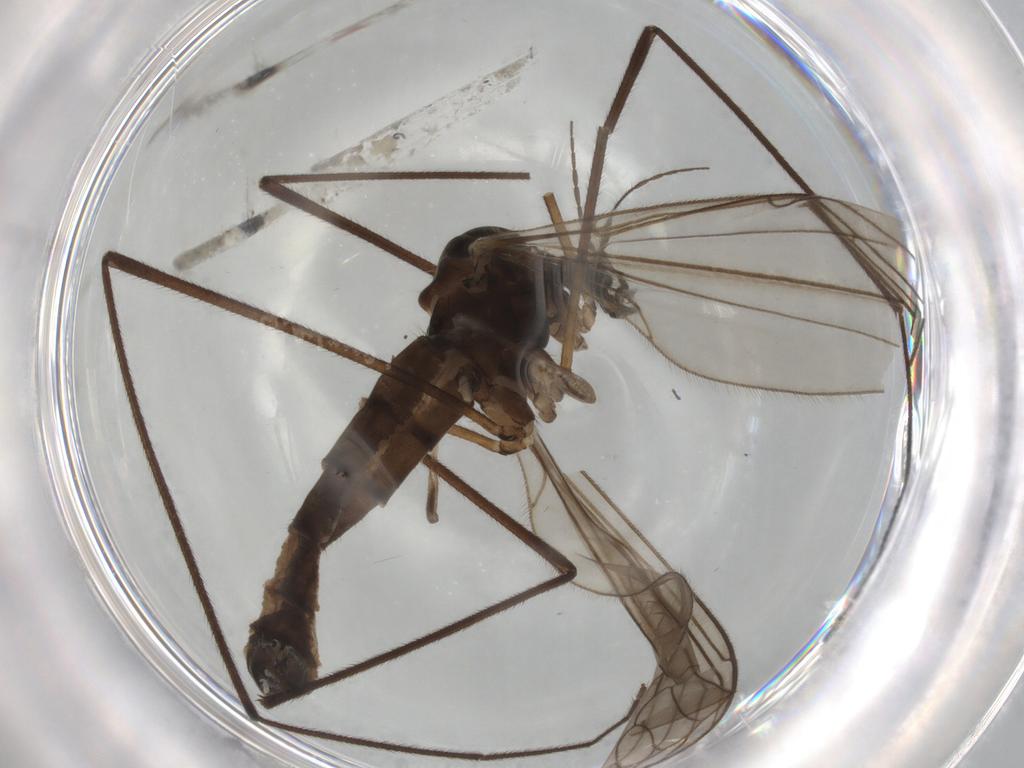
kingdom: Animalia
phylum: Arthropoda
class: Insecta
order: Diptera
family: Trichoceridae
